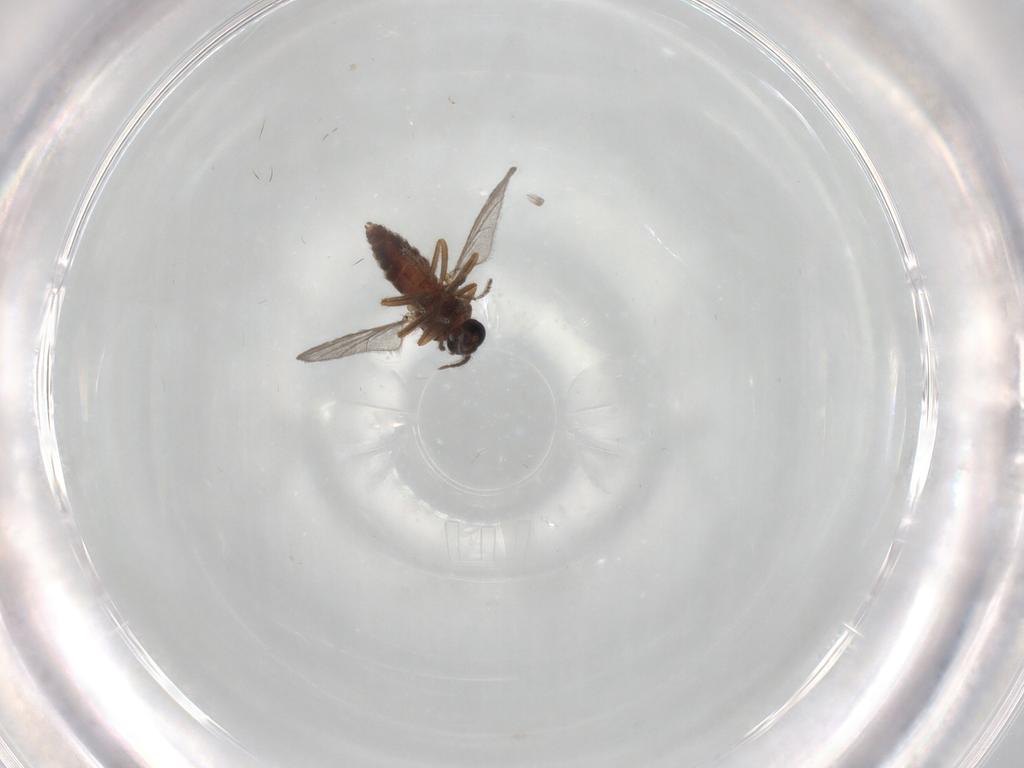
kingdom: Animalia
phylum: Arthropoda
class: Insecta
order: Diptera
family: Ceratopogonidae
